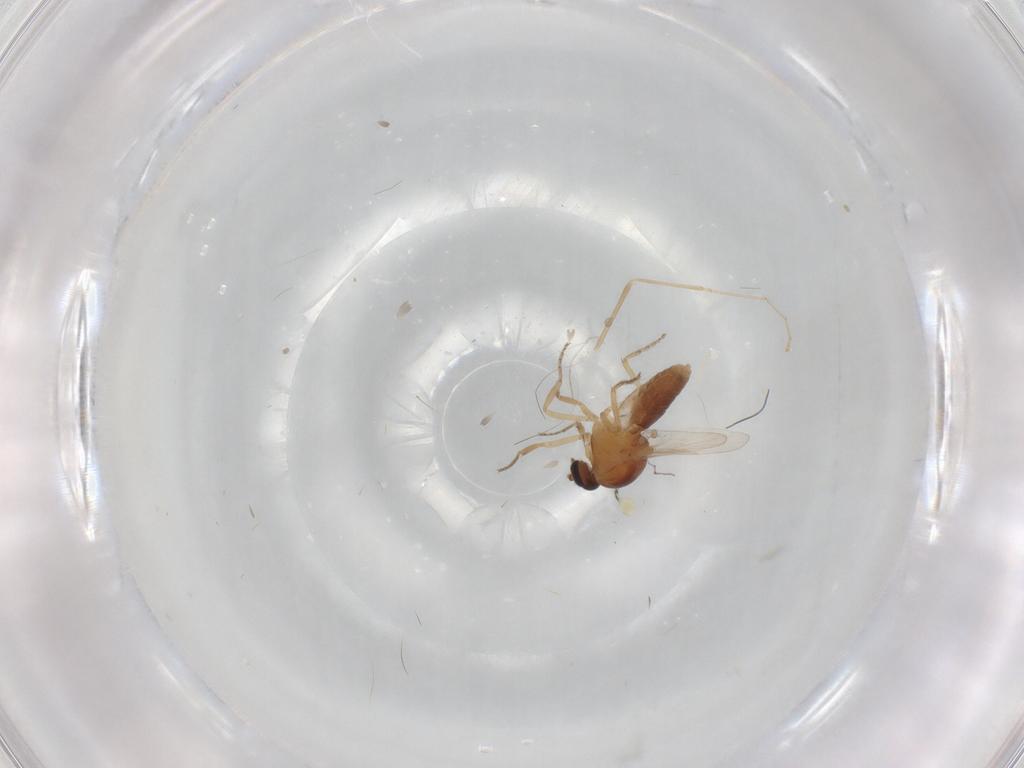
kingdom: Animalia
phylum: Arthropoda
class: Insecta
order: Diptera
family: Ceratopogonidae
